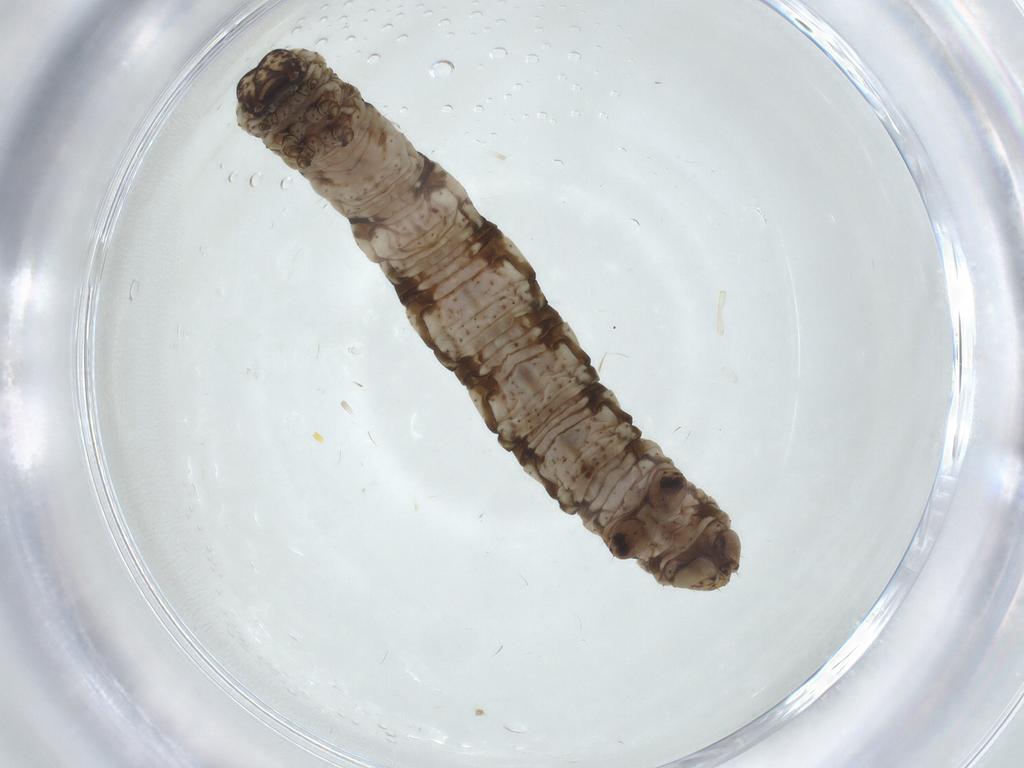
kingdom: Animalia
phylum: Arthropoda
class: Insecta
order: Lepidoptera
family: Geometridae
